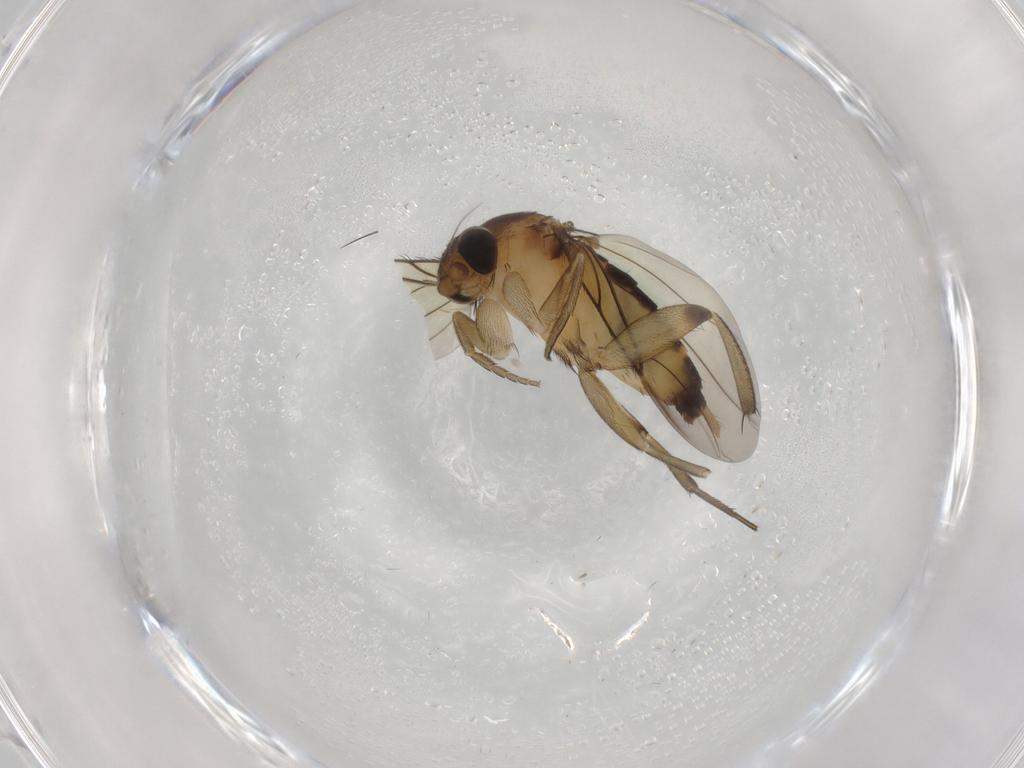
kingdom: Animalia
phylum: Arthropoda
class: Insecta
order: Diptera
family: Phoridae
